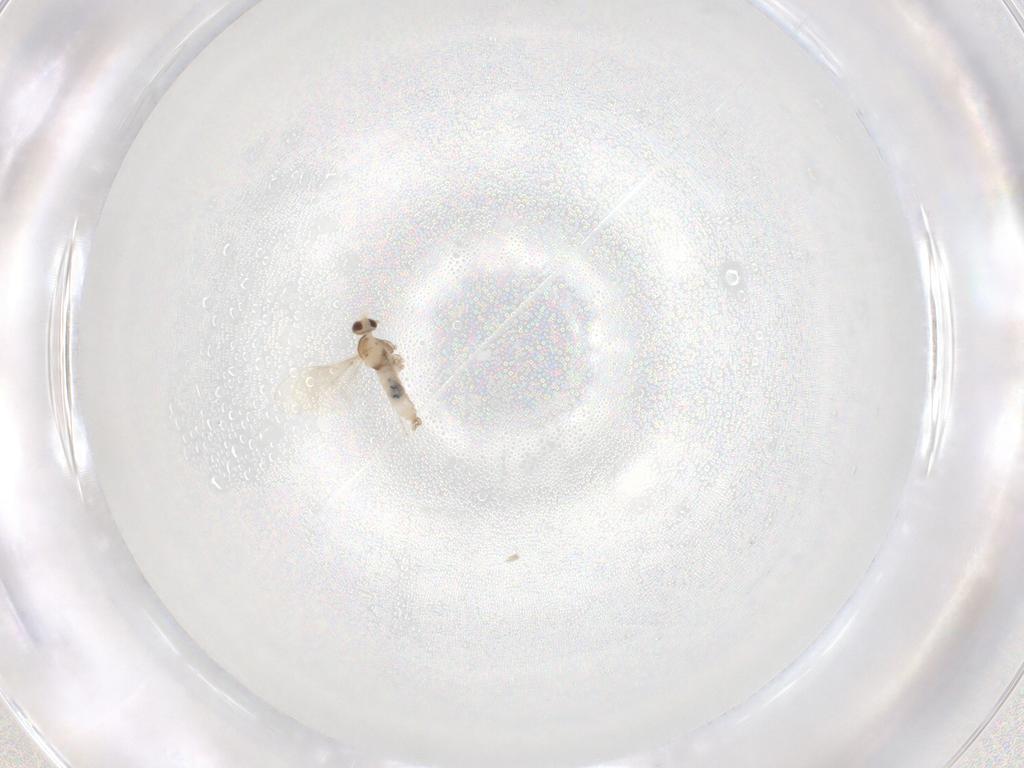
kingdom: Animalia
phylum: Arthropoda
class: Insecta
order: Diptera
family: Cecidomyiidae
